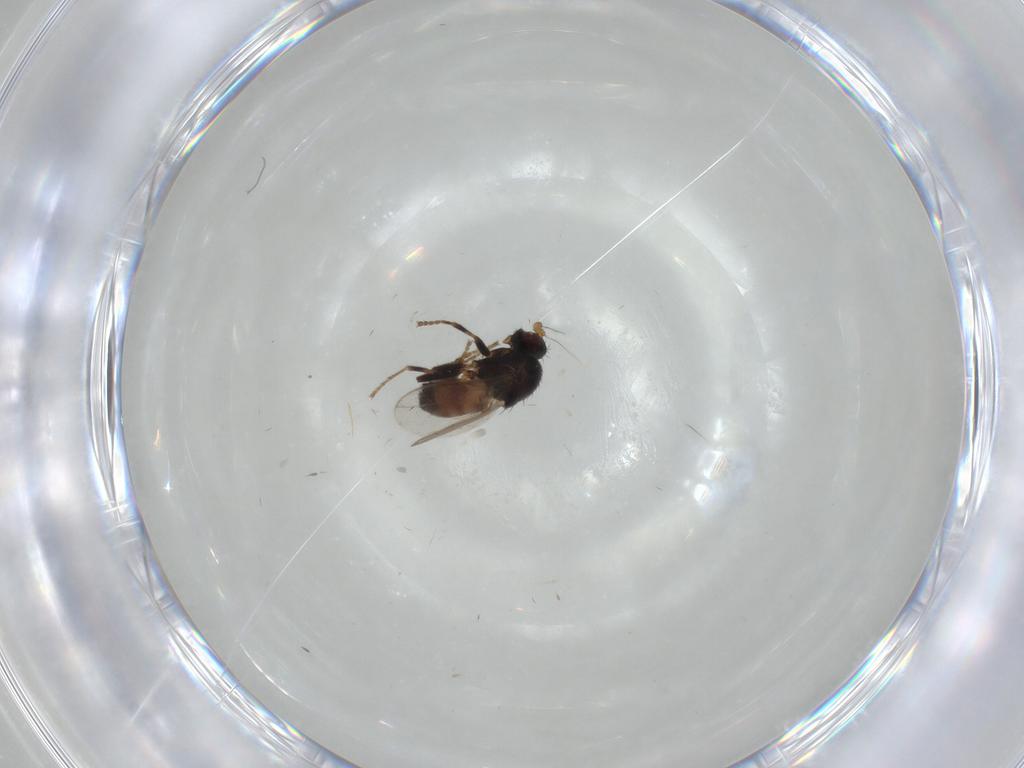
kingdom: Animalia
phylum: Arthropoda
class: Insecta
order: Diptera
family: Sphaeroceridae
